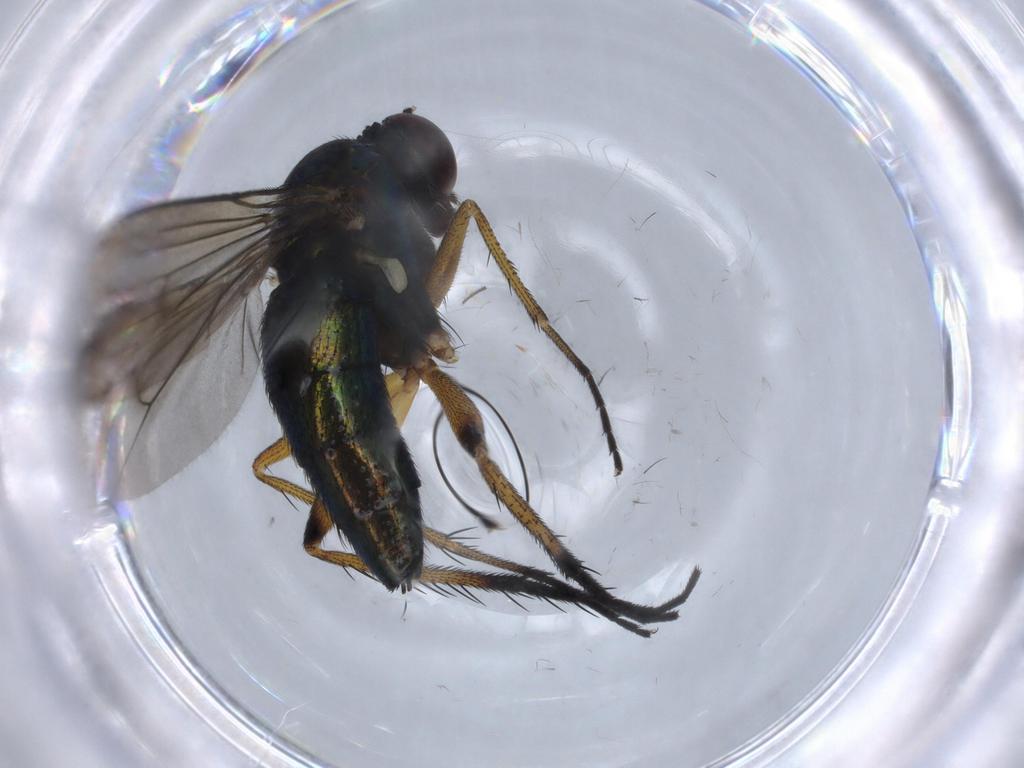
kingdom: Animalia
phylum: Arthropoda
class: Insecta
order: Diptera
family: Dolichopodidae
